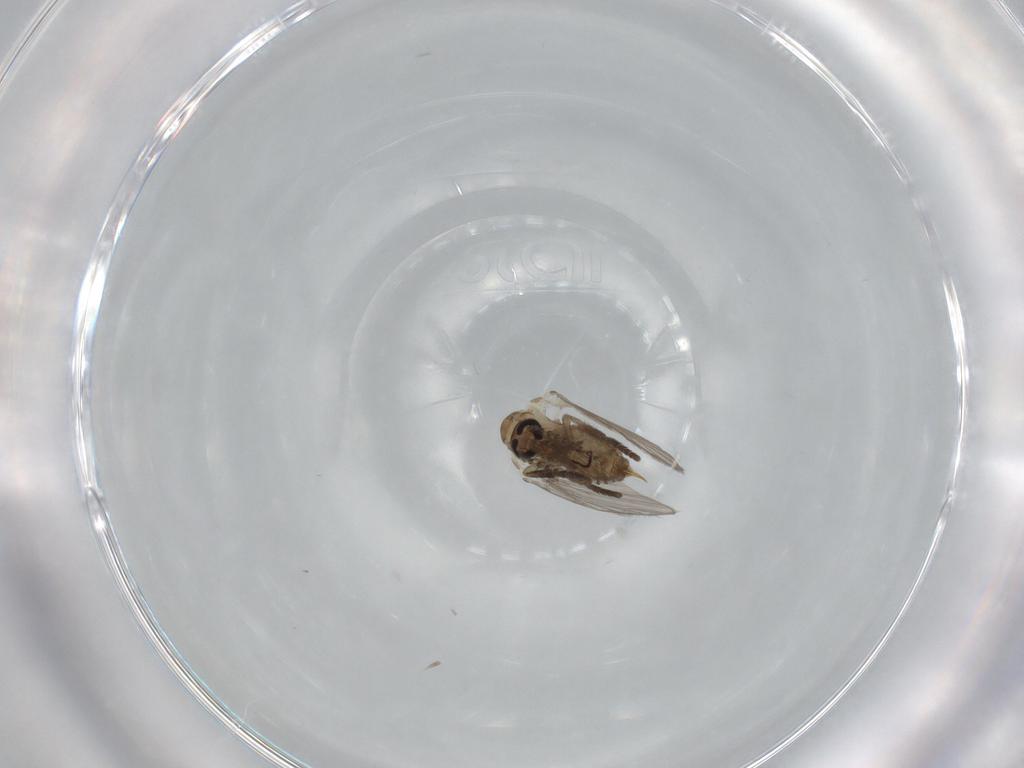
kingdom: Animalia
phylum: Arthropoda
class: Insecta
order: Diptera
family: Psychodidae
